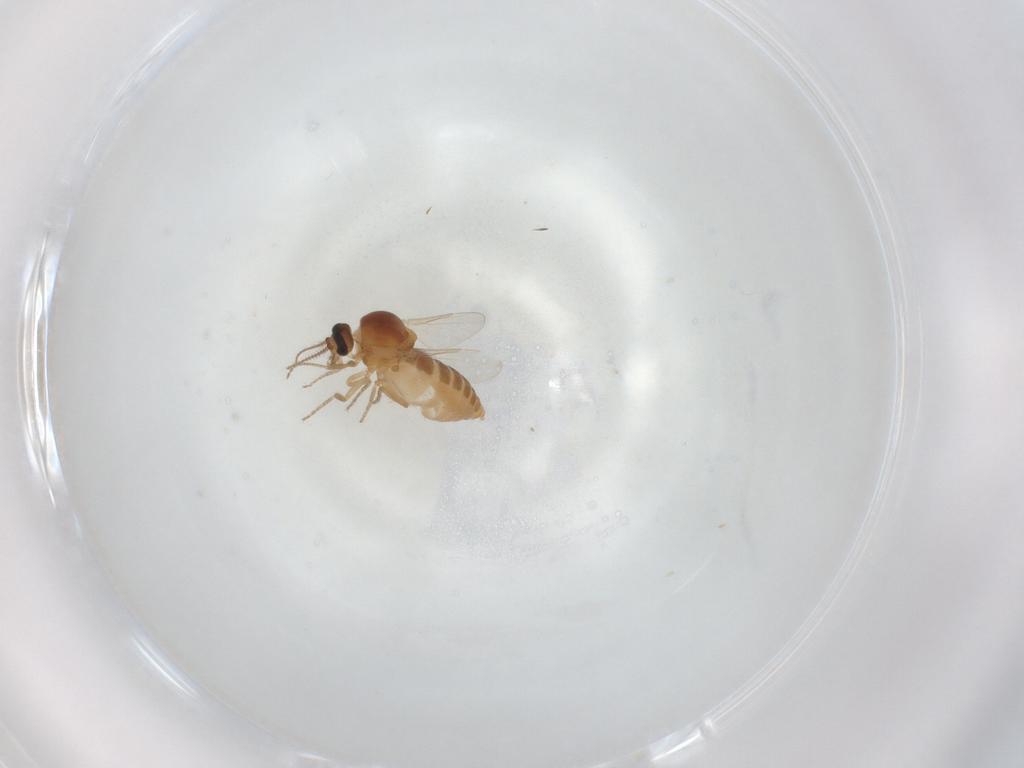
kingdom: Animalia
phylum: Arthropoda
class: Insecta
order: Diptera
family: Ceratopogonidae
